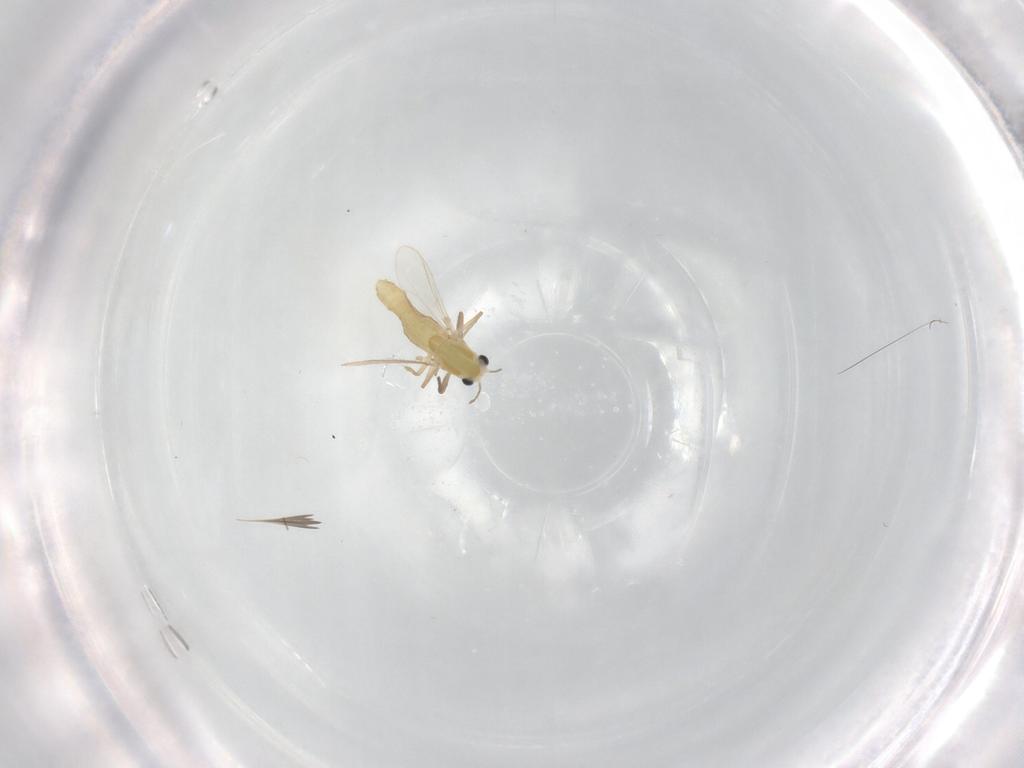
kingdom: Animalia
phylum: Arthropoda
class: Insecta
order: Diptera
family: Chironomidae
